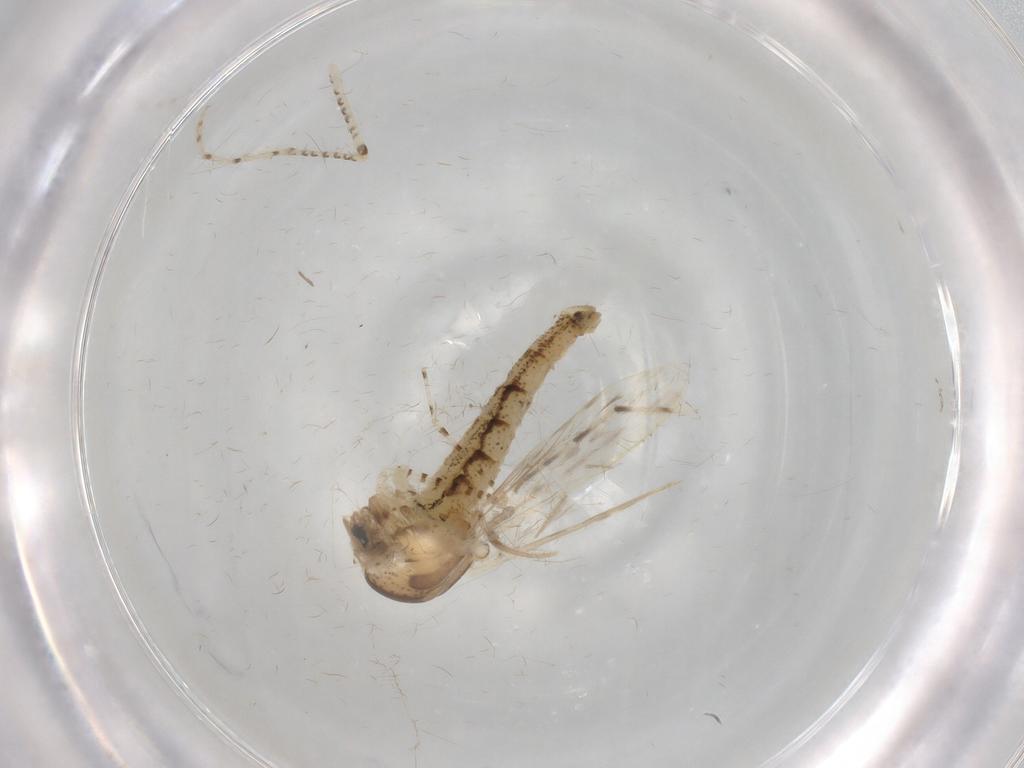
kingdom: Animalia
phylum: Arthropoda
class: Insecta
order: Diptera
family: Chaoboridae
